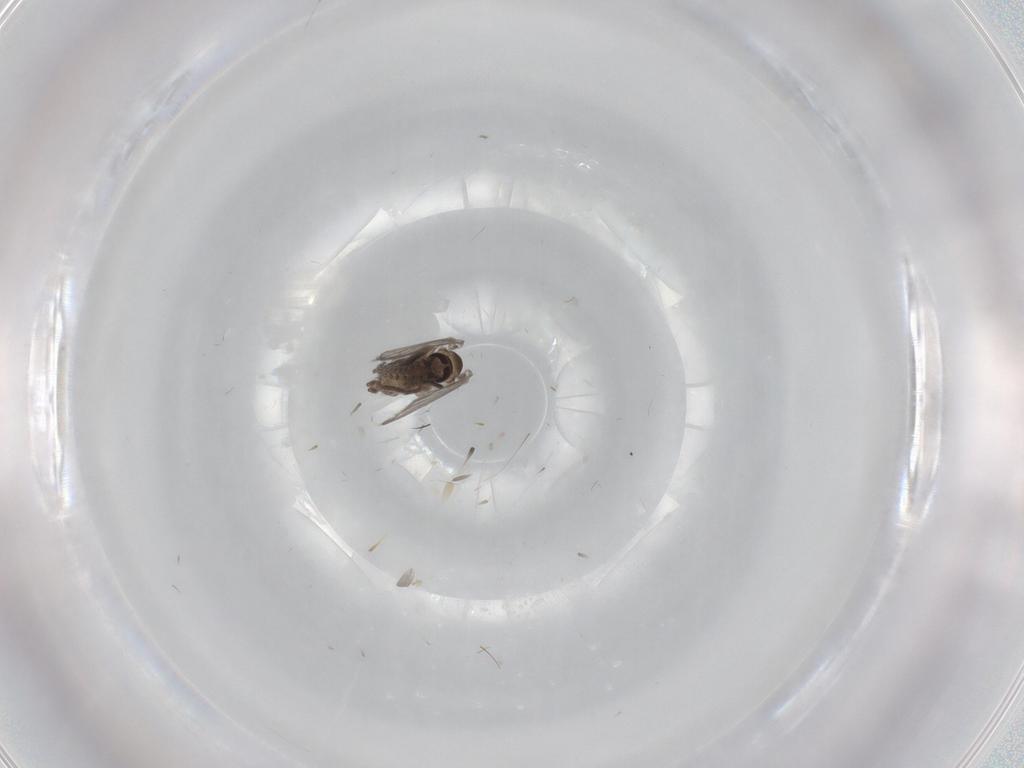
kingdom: Animalia
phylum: Arthropoda
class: Insecta
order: Diptera
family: Psychodidae
